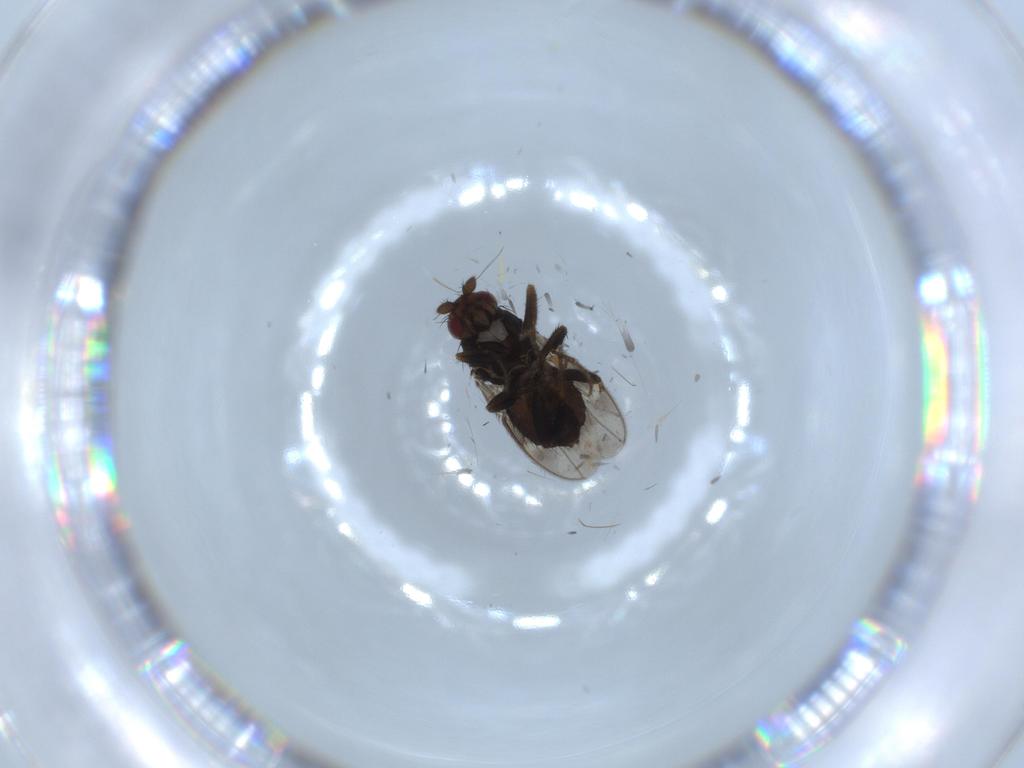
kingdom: Animalia
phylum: Arthropoda
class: Insecta
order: Diptera
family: Sphaeroceridae
